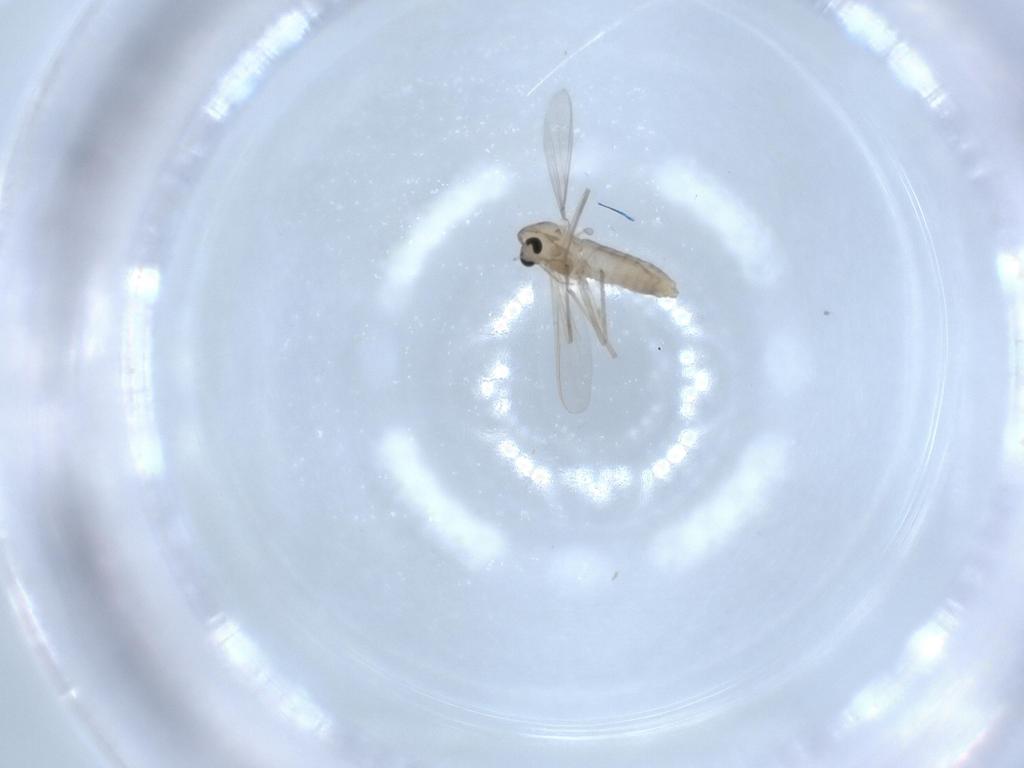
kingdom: Animalia
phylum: Arthropoda
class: Insecta
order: Diptera
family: Chironomidae
